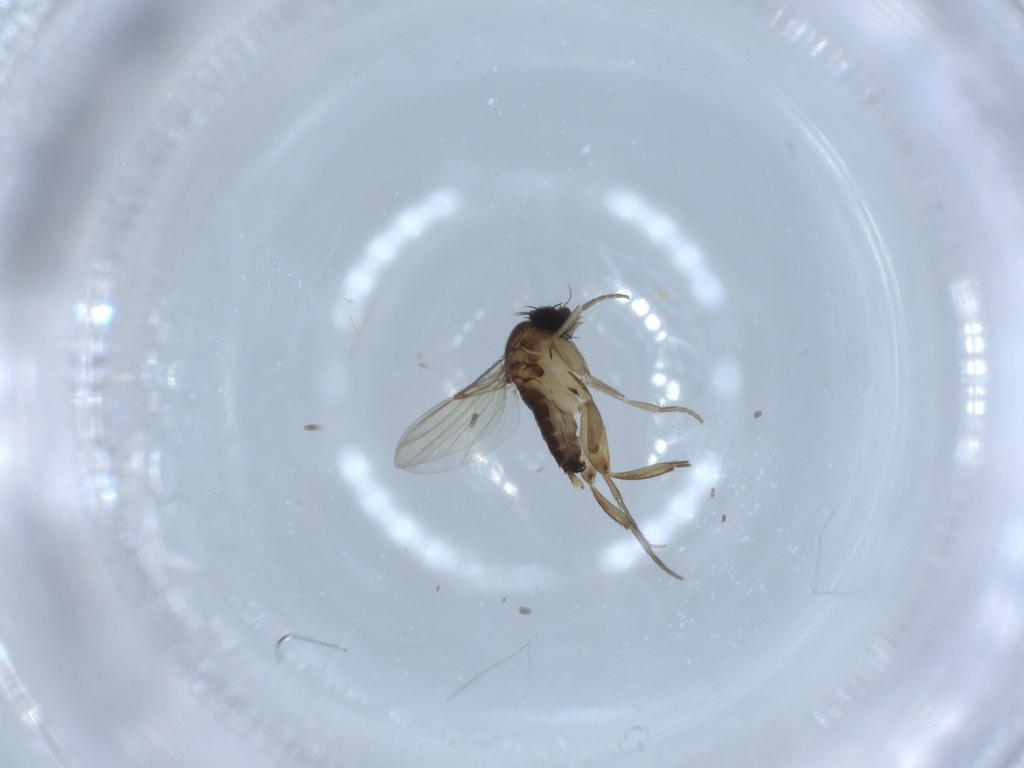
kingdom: Animalia
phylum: Arthropoda
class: Insecta
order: Diptera
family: Phoridae
